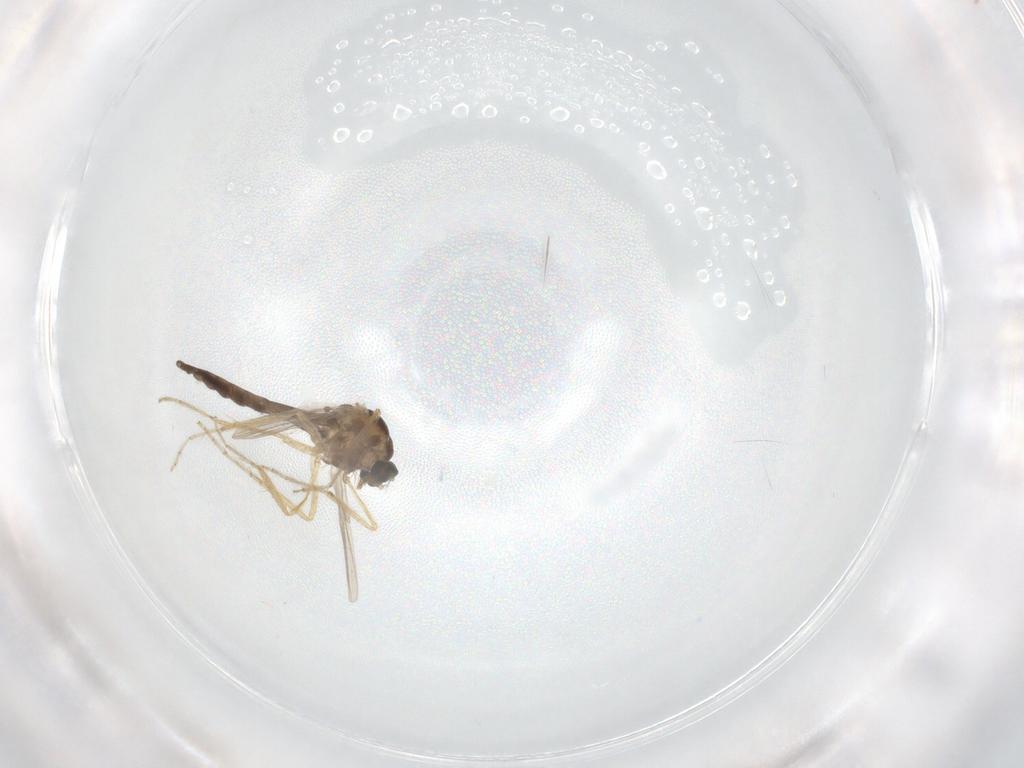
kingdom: Animalia
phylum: Arthropoda
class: Insecta
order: Diptera
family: Ceratopogonidae
